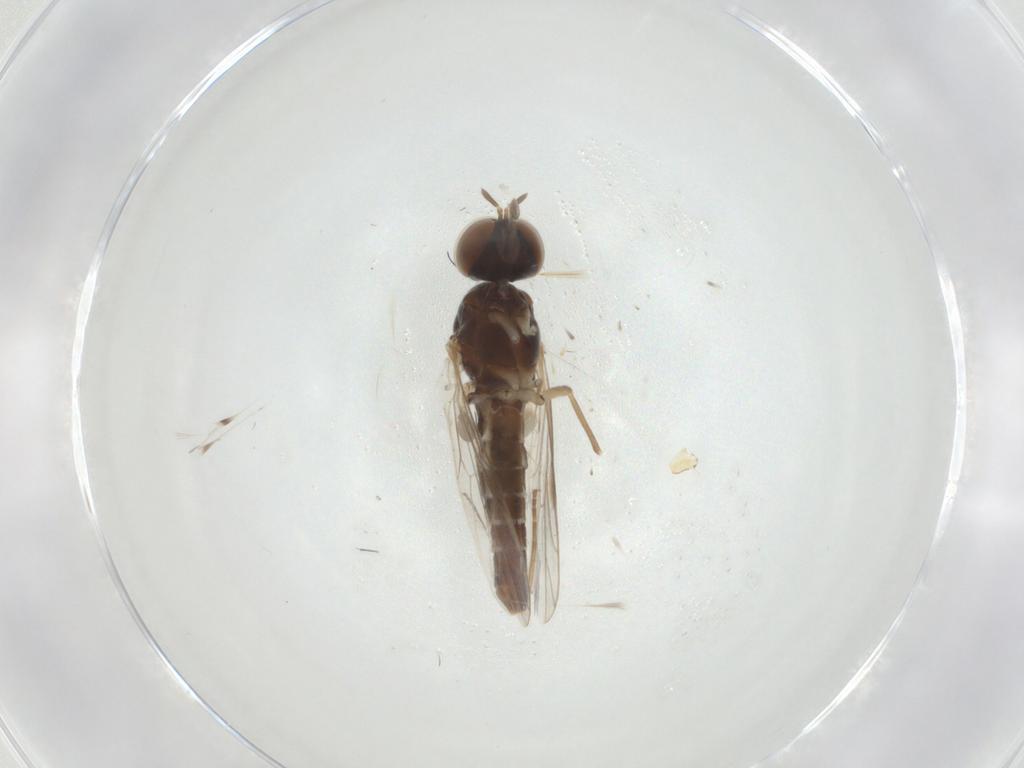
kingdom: Animalia
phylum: Arthropoda
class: Insecta
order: Diptera
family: Scenopinidae
